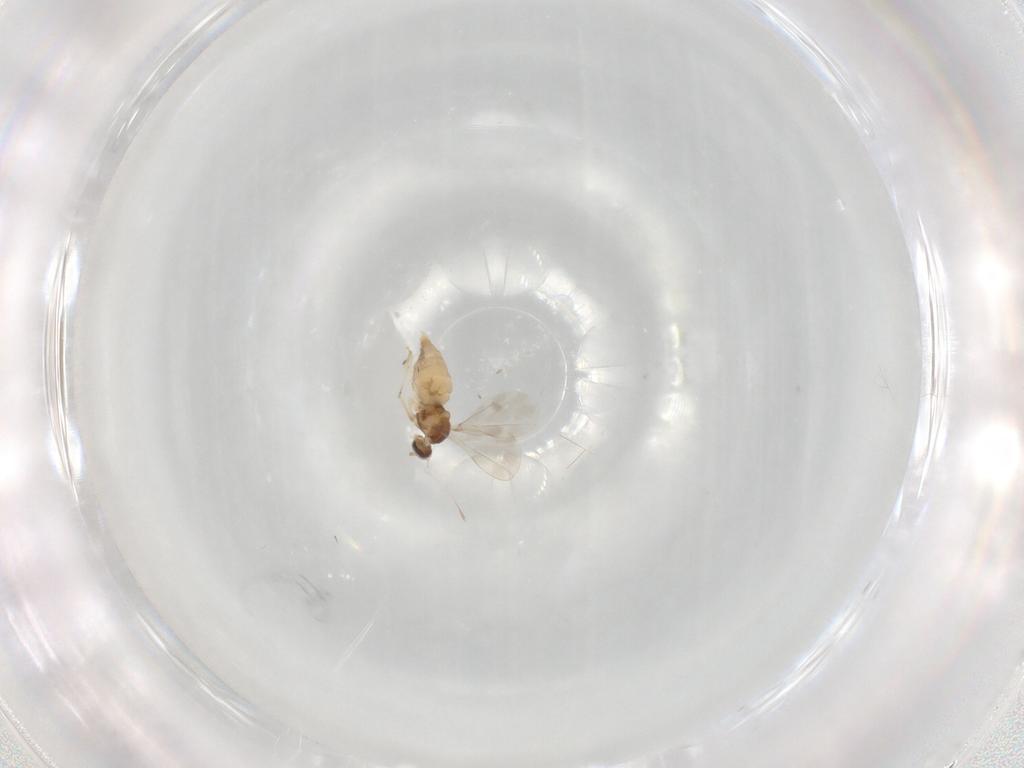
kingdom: Animalia
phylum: Arthropoda
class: Insecta
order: Diptera
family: Cecidomyiidae
